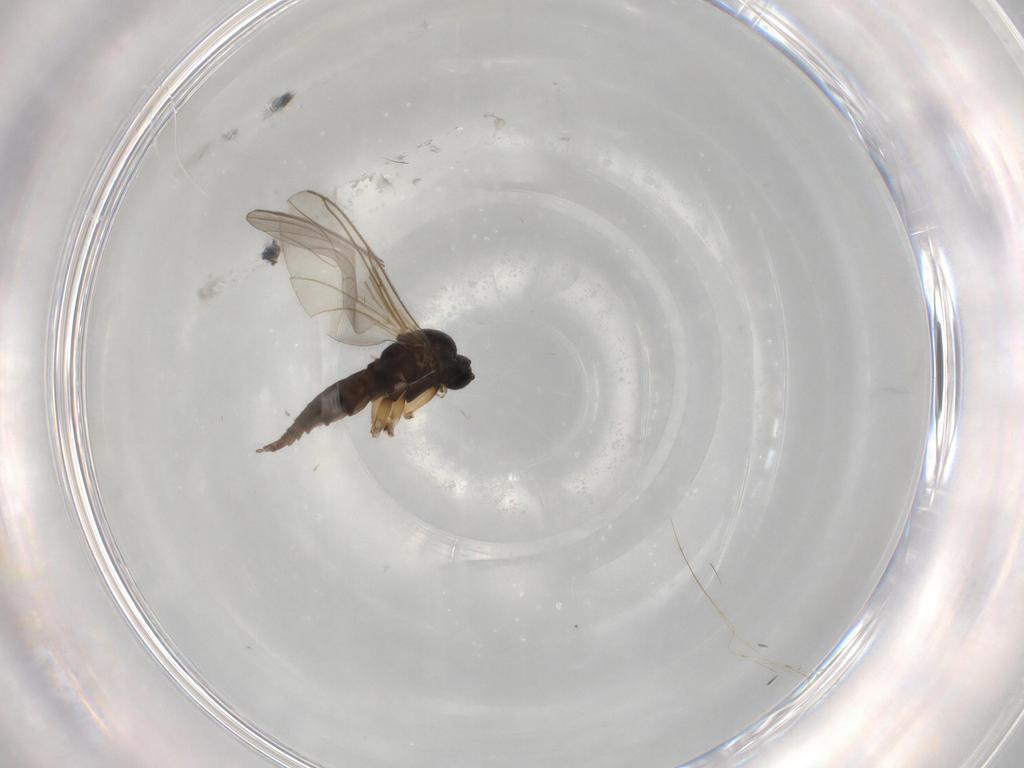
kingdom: Animalia
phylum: Arthropoda
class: Insecta
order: Diptera
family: Sciaridae
